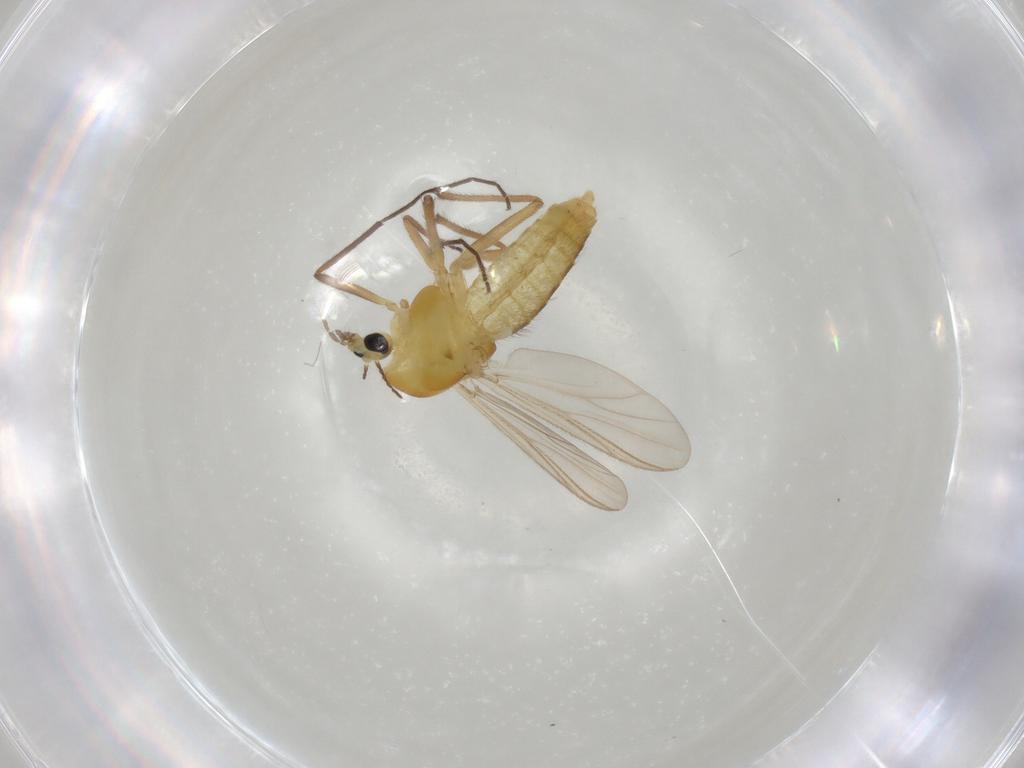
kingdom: Animalia
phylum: Arthropoda
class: Insecta
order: Diptera
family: Chironomidae
